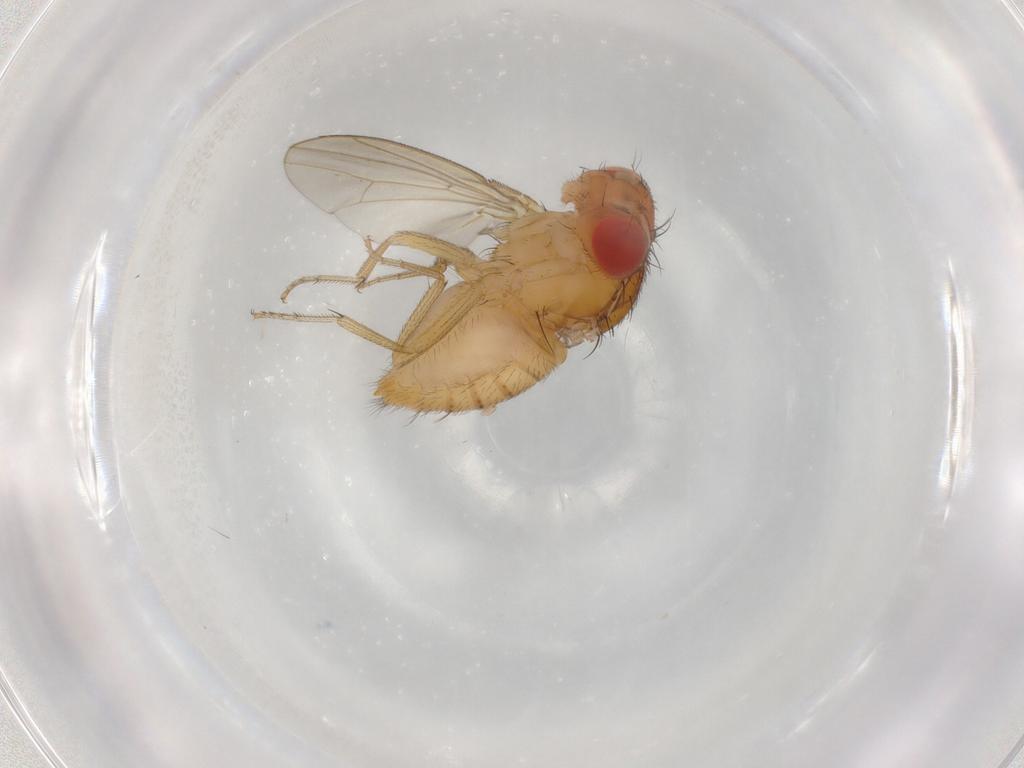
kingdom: Animalia
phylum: Arthropoda
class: Insecta
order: Diptera
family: Drosophilidae
